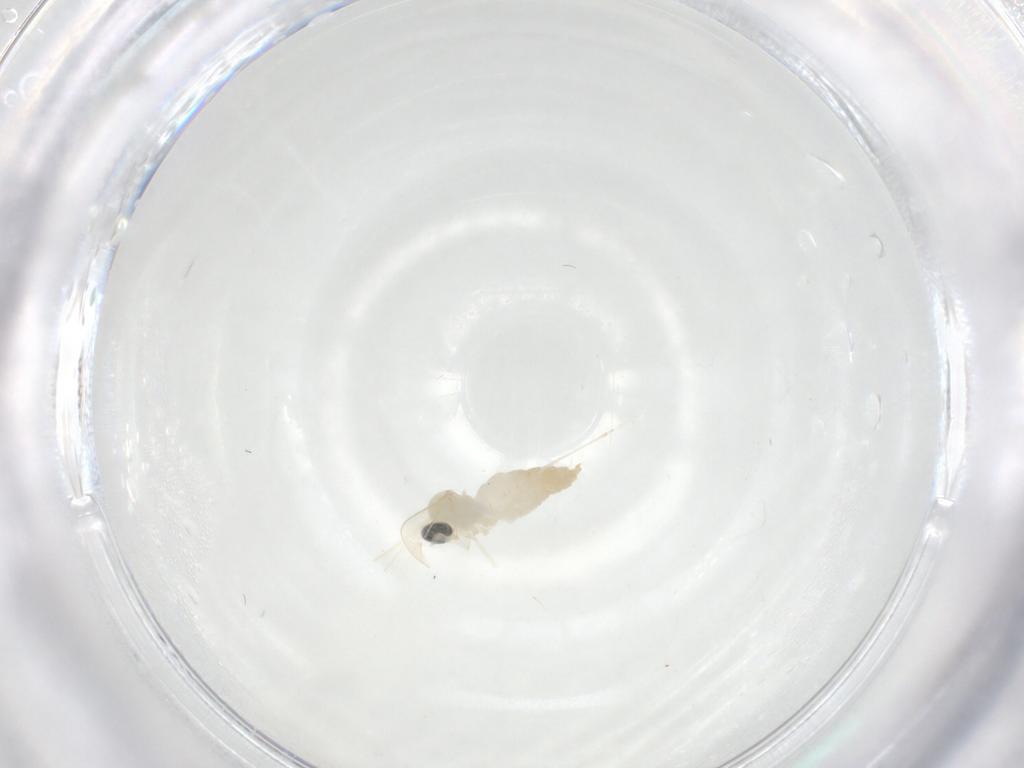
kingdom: Animalia
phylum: Arthropoda
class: Insecta
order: Diptera
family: Cecidomyiidae
